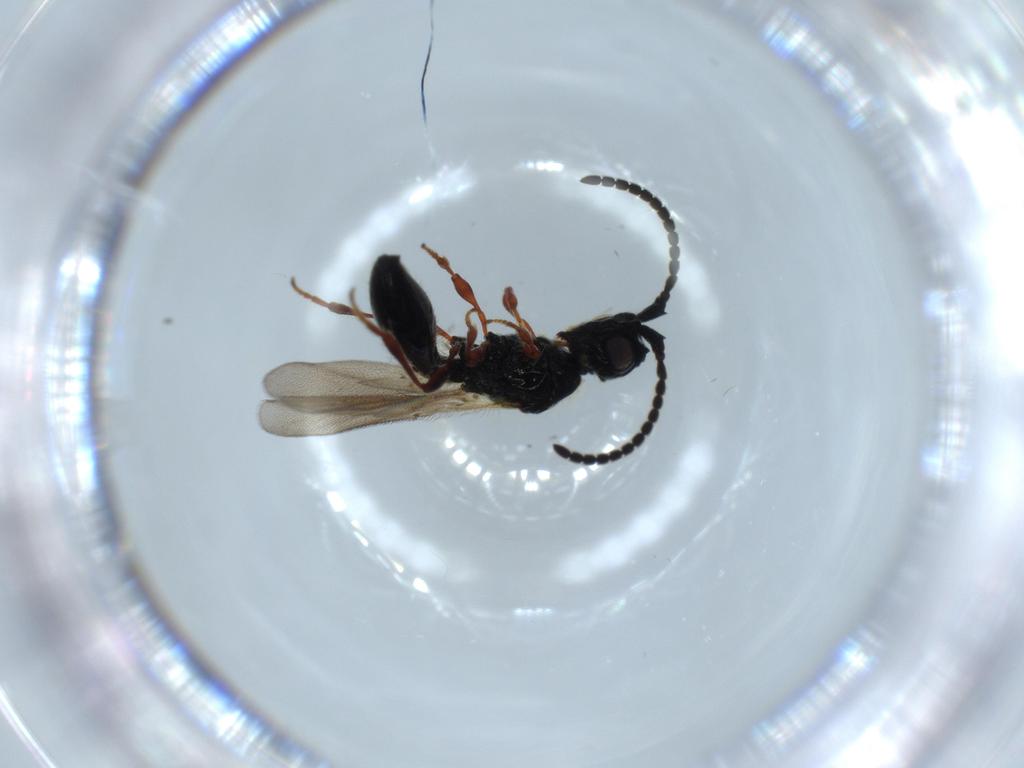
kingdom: Animalia
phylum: Arthropoda
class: Insecta
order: Hymenoptera
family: Diapriidae
